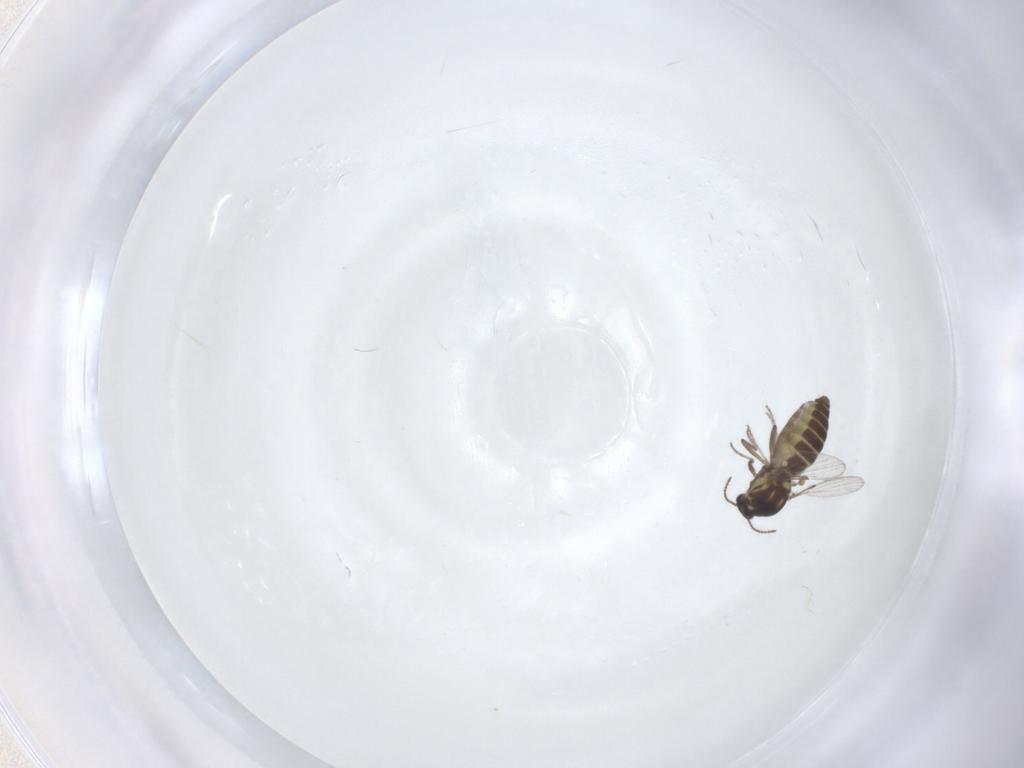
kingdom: Animalia
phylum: Arthropoda
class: Insecta
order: Diptera
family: Ceratopogonidae
